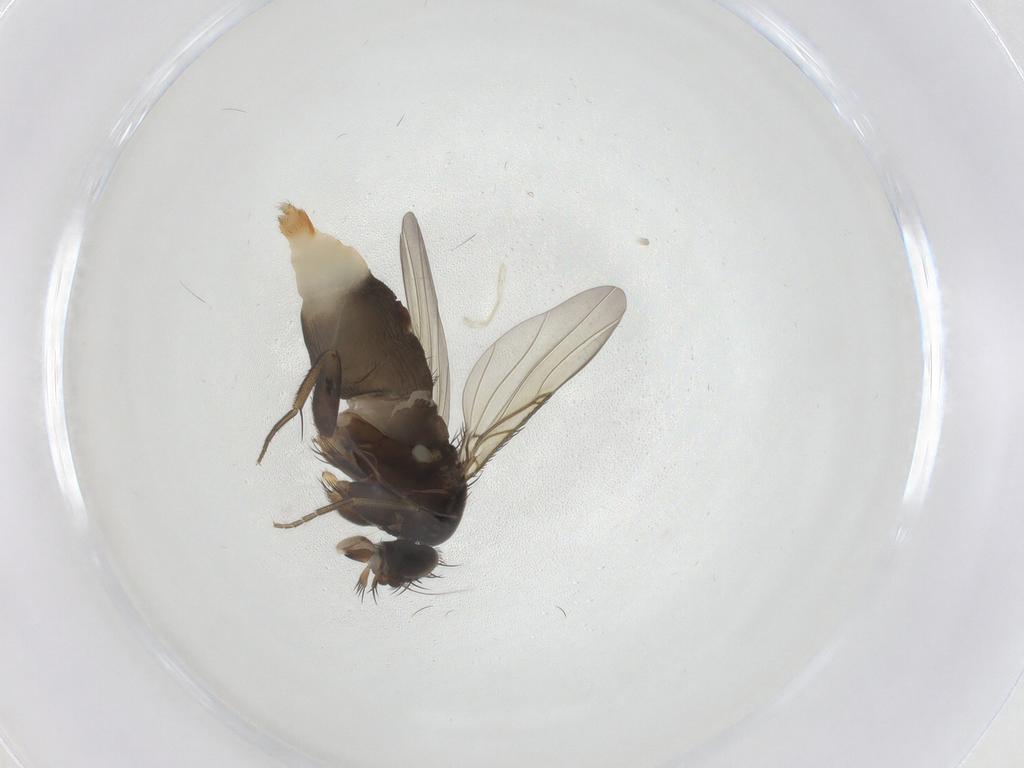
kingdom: Animalia
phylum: Arthropoda
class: Insecta
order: Diptera
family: Phoridae
